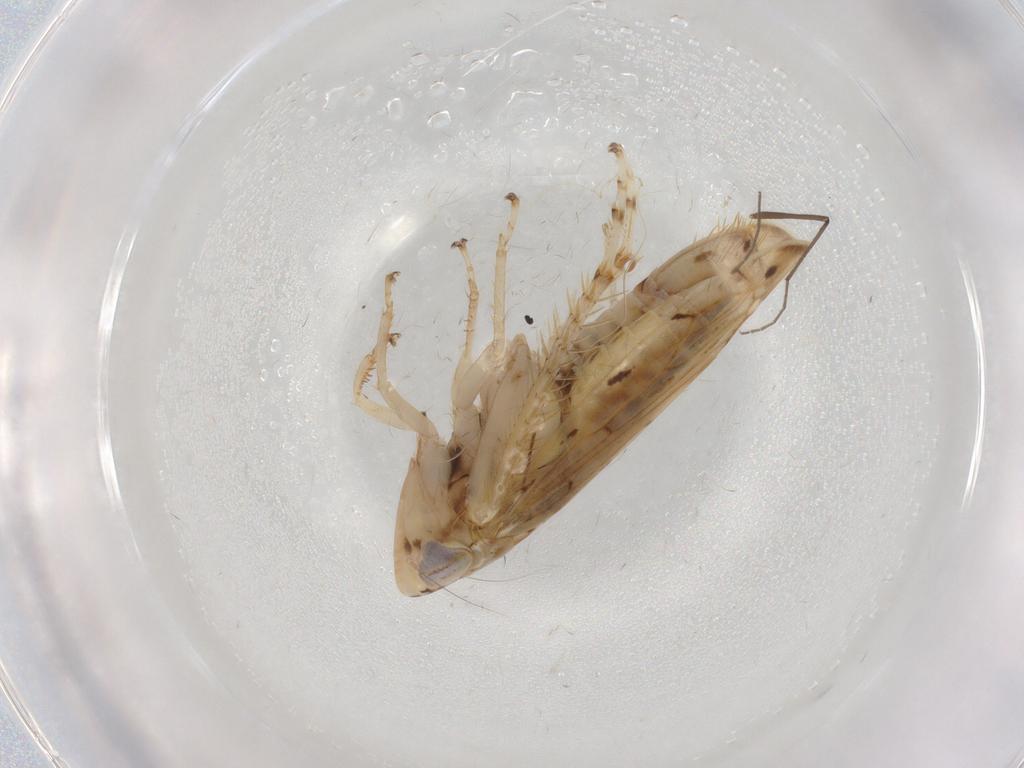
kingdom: Animalia
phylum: Arthropoda
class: Insecta
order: Hemiptera
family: Cicadellidae
